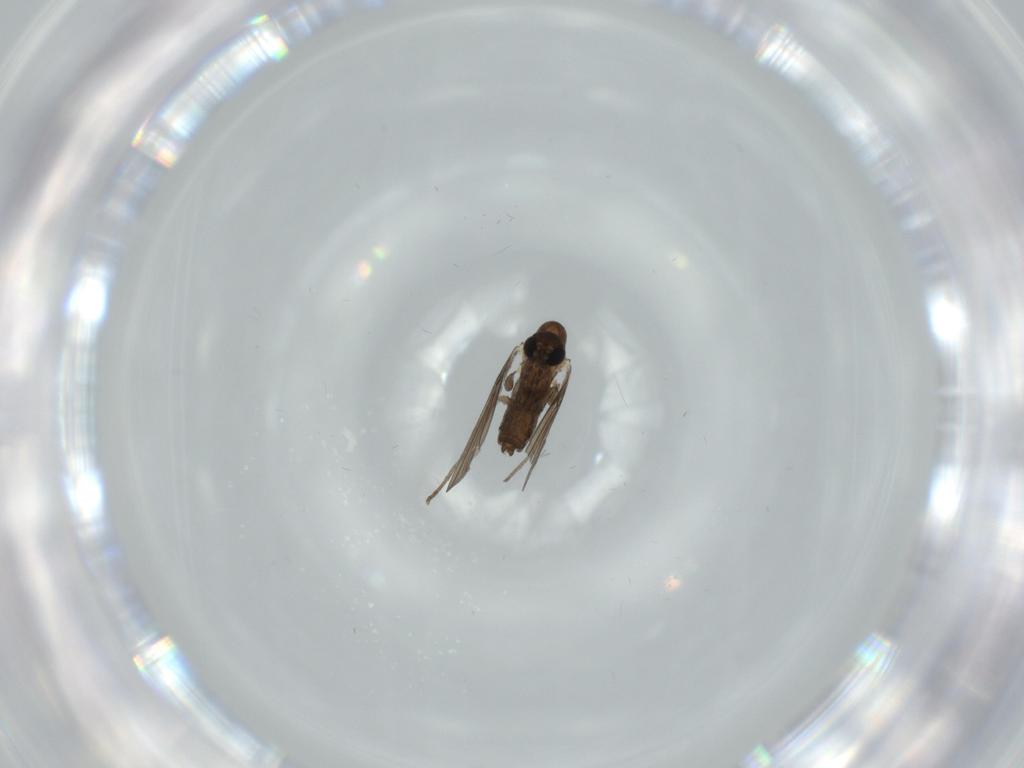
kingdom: Animalia
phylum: Arthropoda
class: Insecta
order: Diptera
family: Psychodidae
